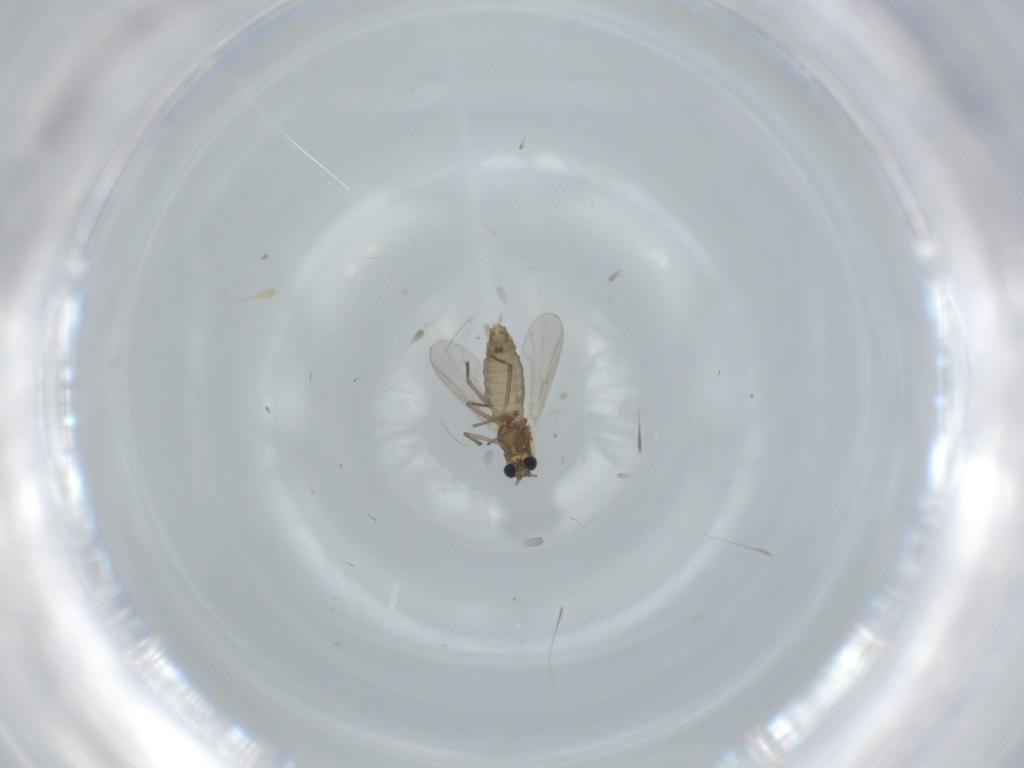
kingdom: Animalia
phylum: Arthropoda
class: Insecta
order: Diptera
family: Chironomidae
